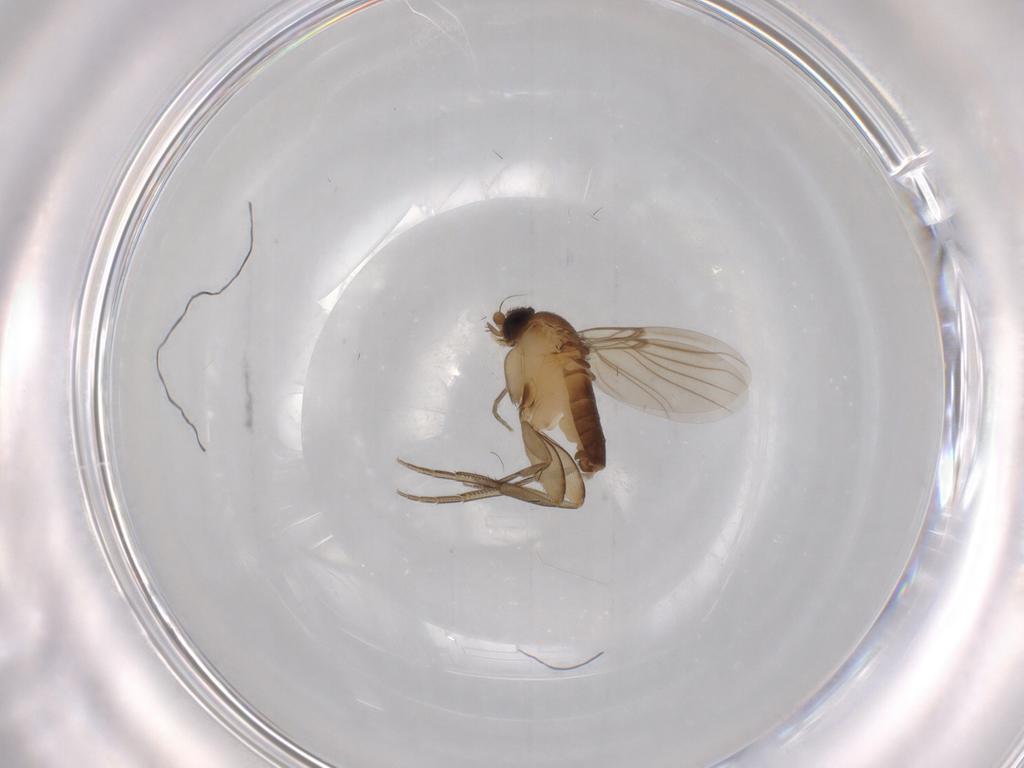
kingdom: Animalia
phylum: Arthropoda
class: Insecta
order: Diptera
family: Phoridae
